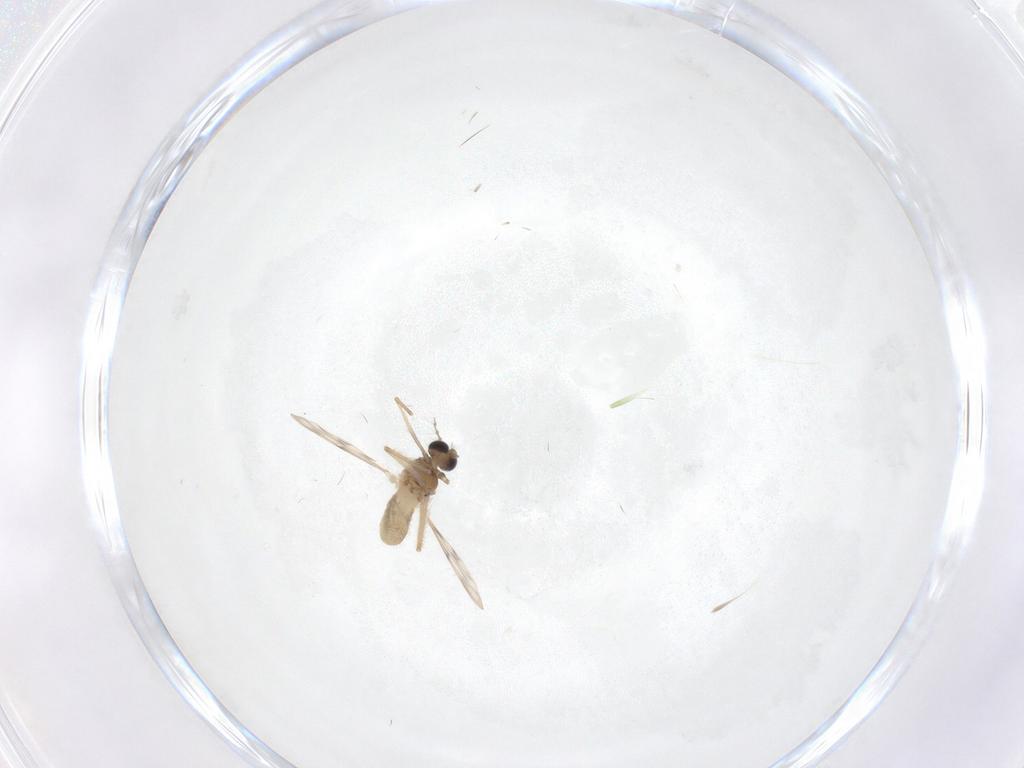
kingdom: Animalia
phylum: Arthropoda
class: Insecta
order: Diptera
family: Chironomidae
